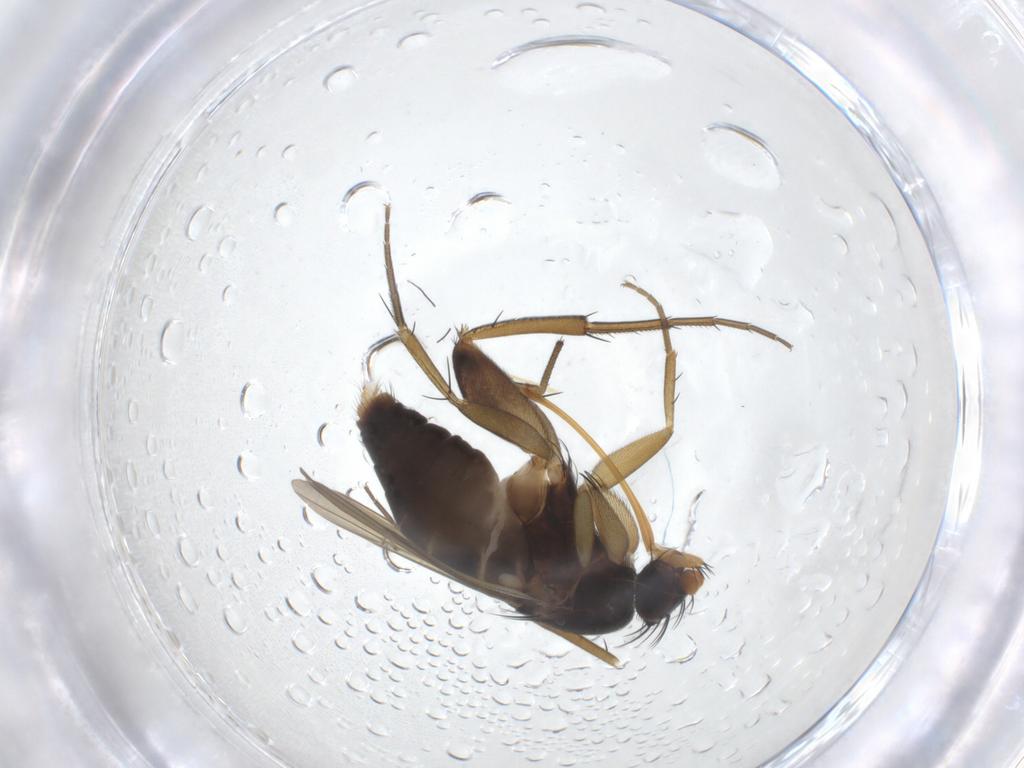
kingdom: Animalia
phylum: Arthropoda
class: Insecta
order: Diptera
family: Phoridae
